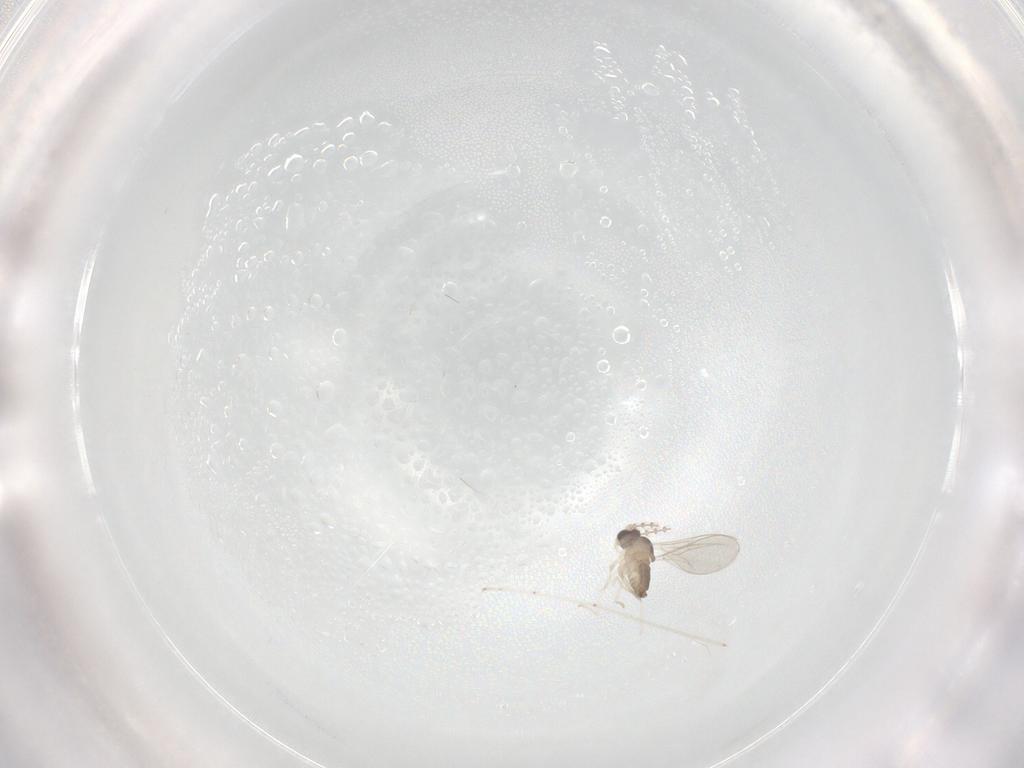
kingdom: Animalia
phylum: Arthropoda
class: Insecta
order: Diptera
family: Cecidomyiidae
